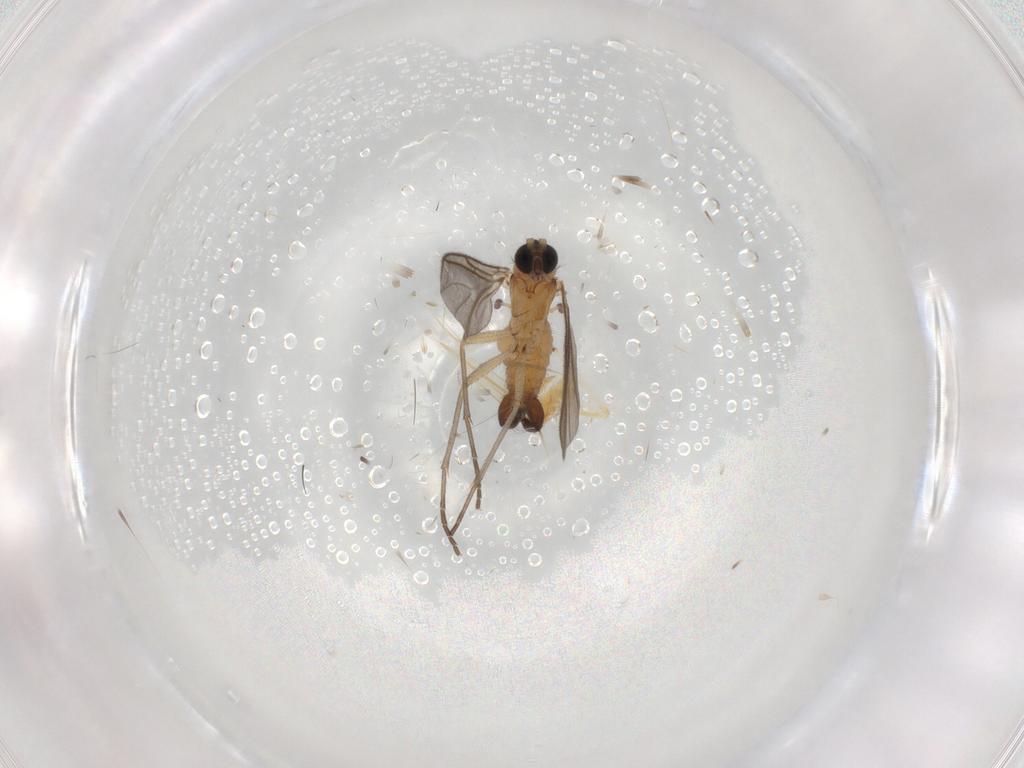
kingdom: Animalia
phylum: Arthropoda
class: Insecta
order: Diptera
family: Sciaridae
